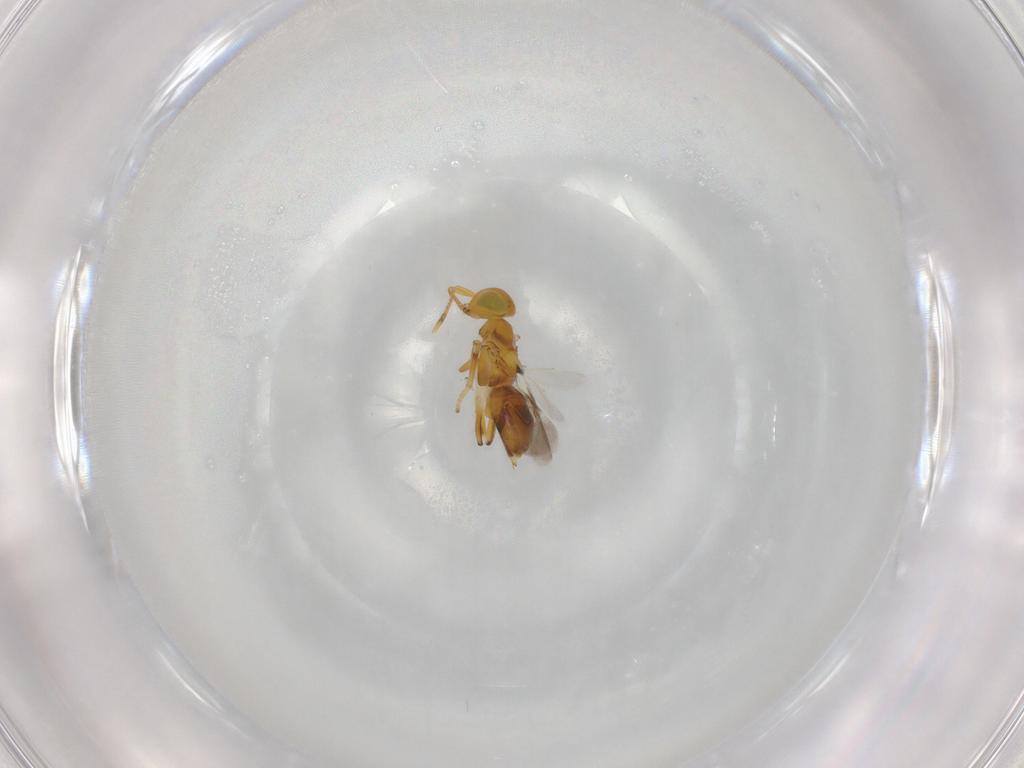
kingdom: Animalia
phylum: Arthropoda
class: Insecta
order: Hymenoptera
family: Encyrtidae
